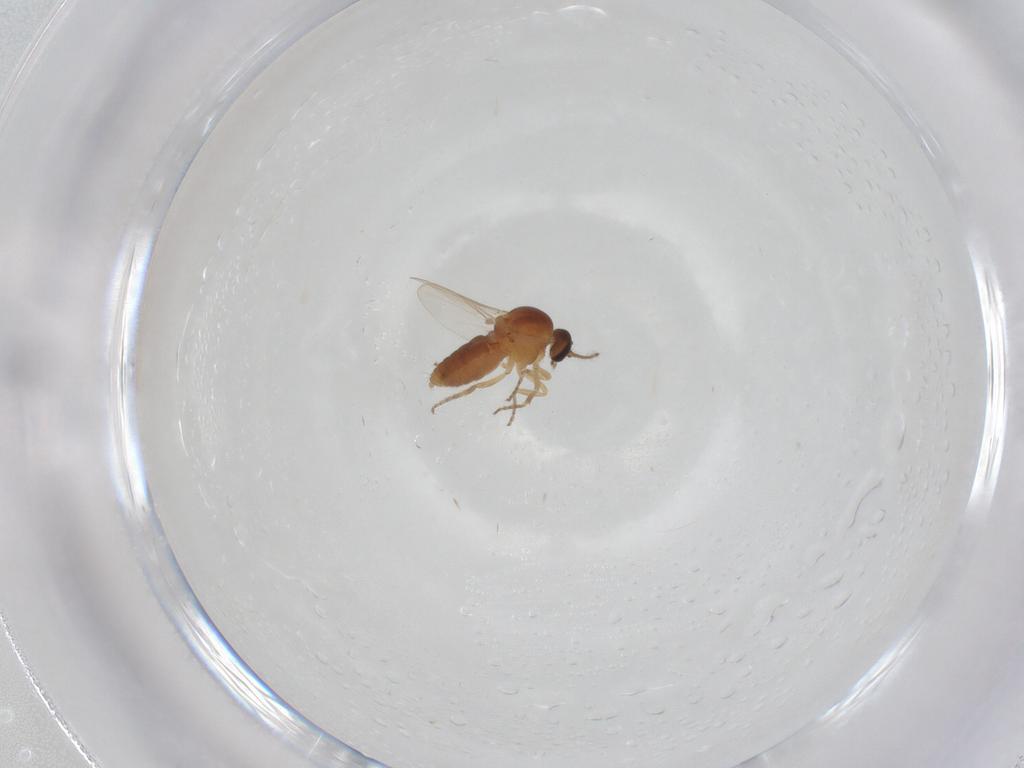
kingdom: Animalia
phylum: Arthropoda
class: Insecta
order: Diptera
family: Ceratopogonidae
